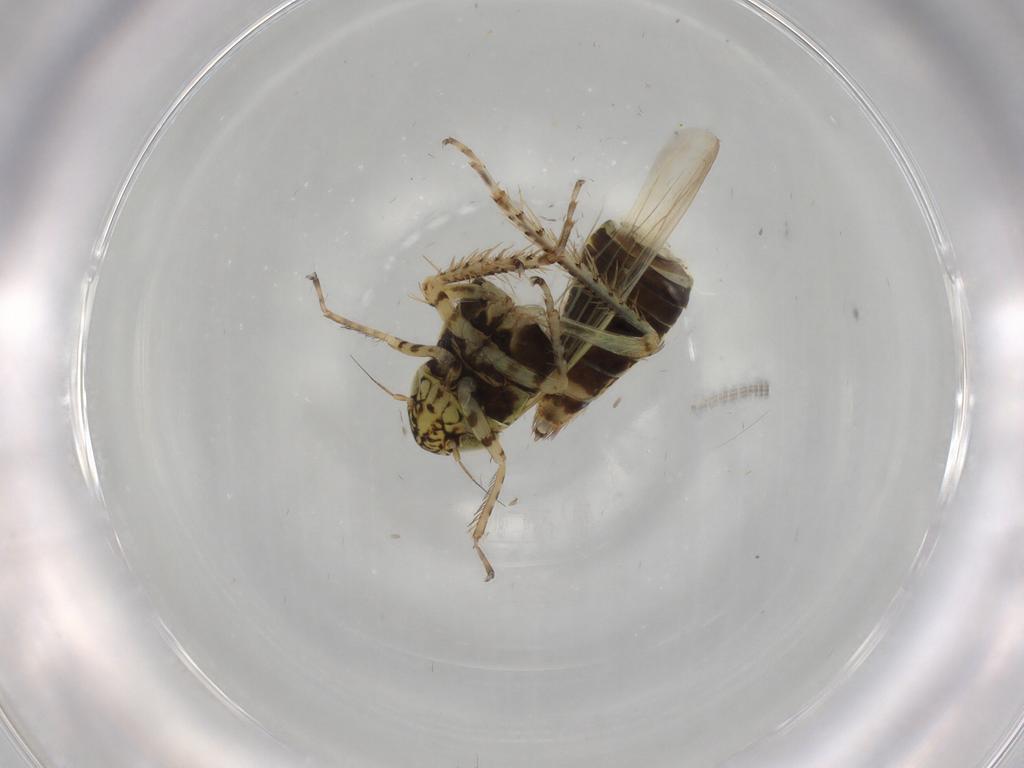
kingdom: Animalia
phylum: Arthropoda
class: Insecta
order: Hemiptera
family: Cicadellidae
